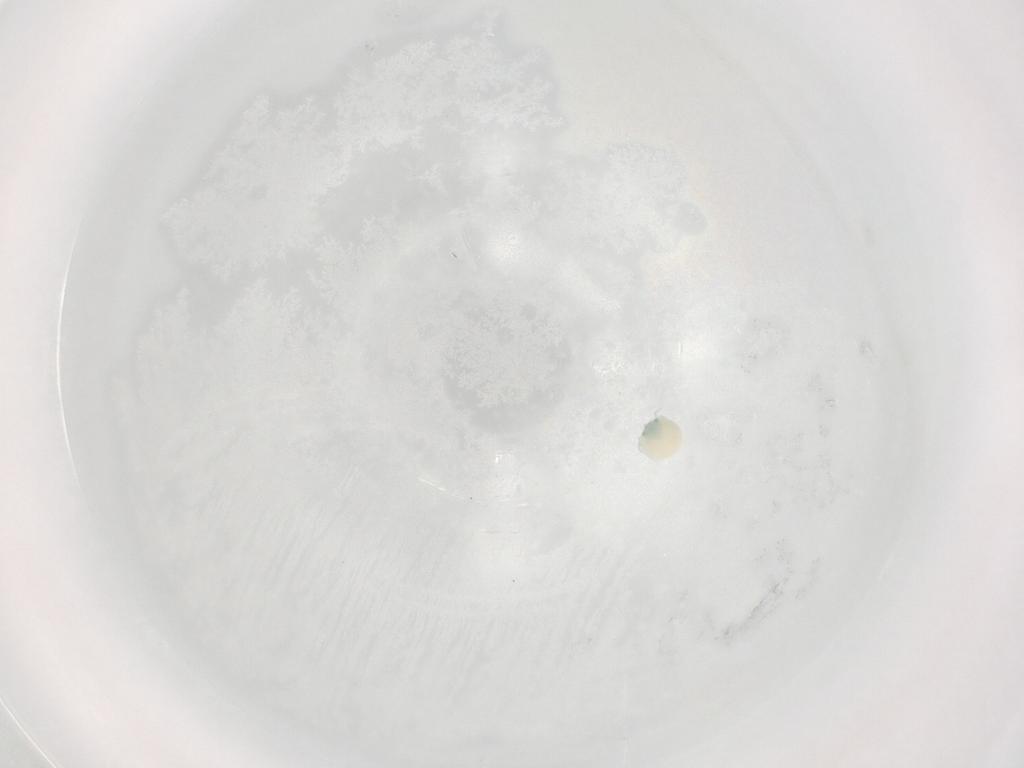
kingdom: Animalia
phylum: Arthropoda
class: Arachnida
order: Trombidiformes
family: Arrenuridae
